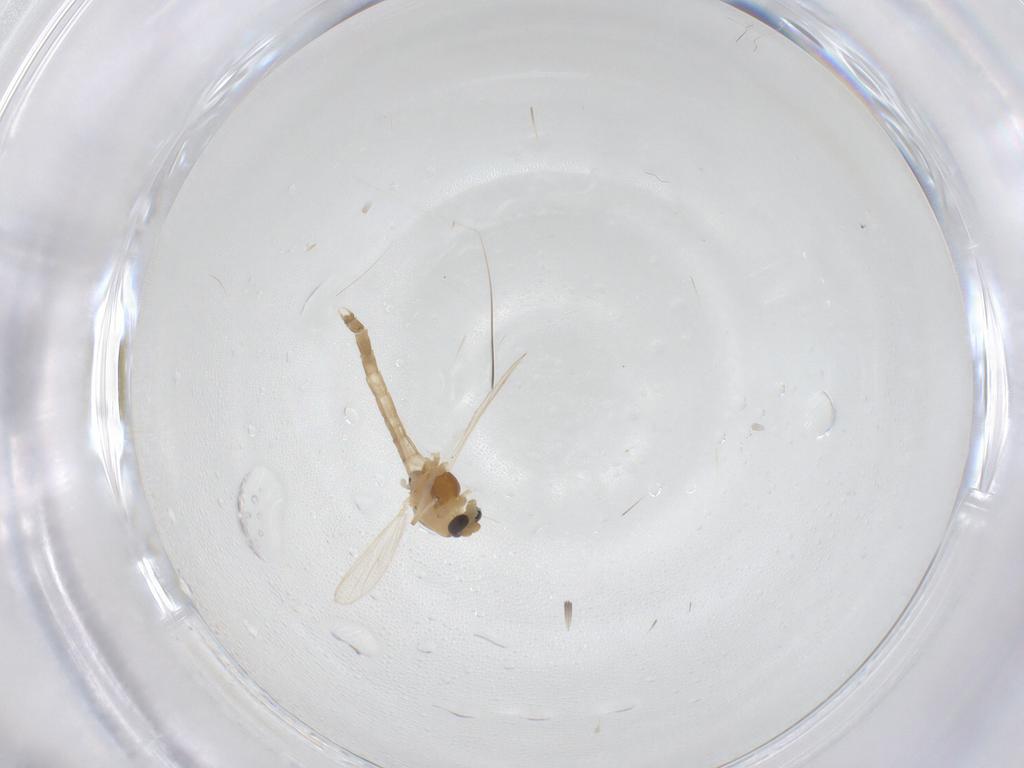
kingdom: Animalia
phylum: Arthropoda
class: Insecta
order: Diptera
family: Chironomidae
